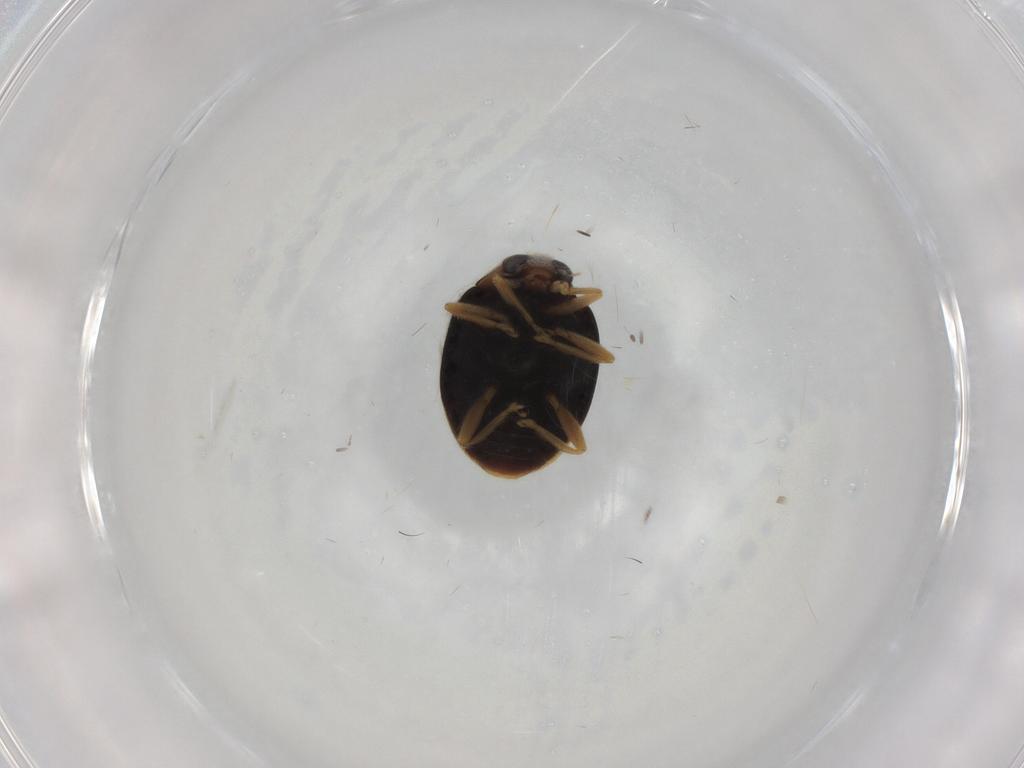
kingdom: Animalia
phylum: Arthropoda
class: Insecta
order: Coleoptera
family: Coccinellidae
